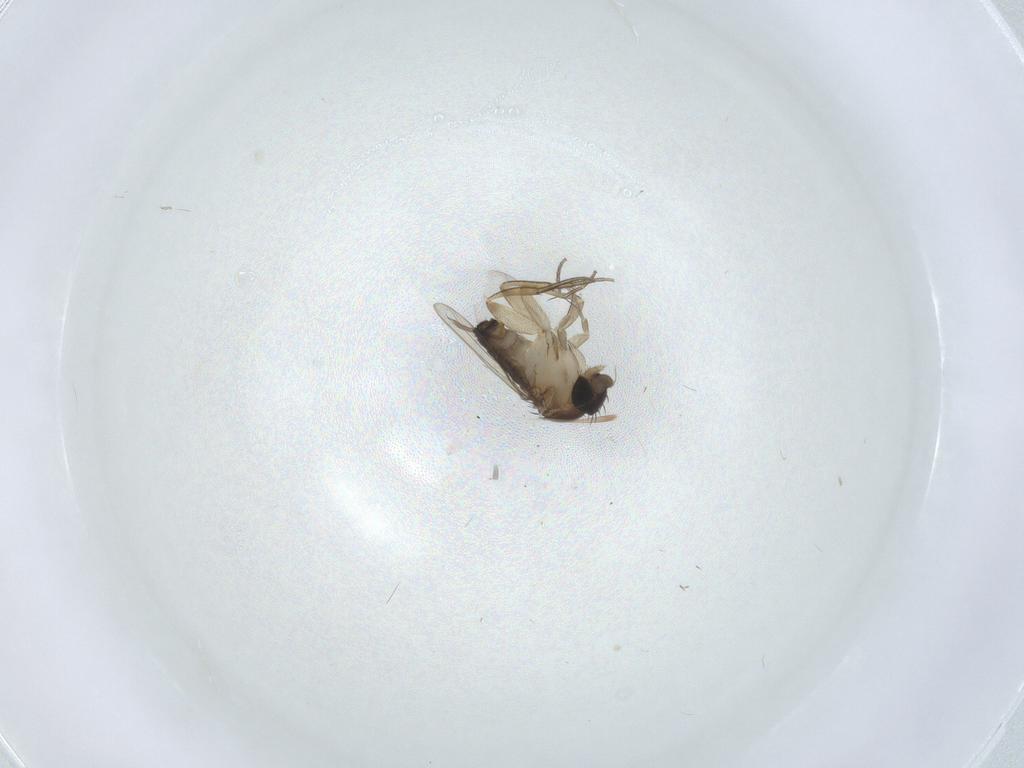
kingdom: Animalia
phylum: Arthropoda
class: Insecta
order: Diptera
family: Phoridae
